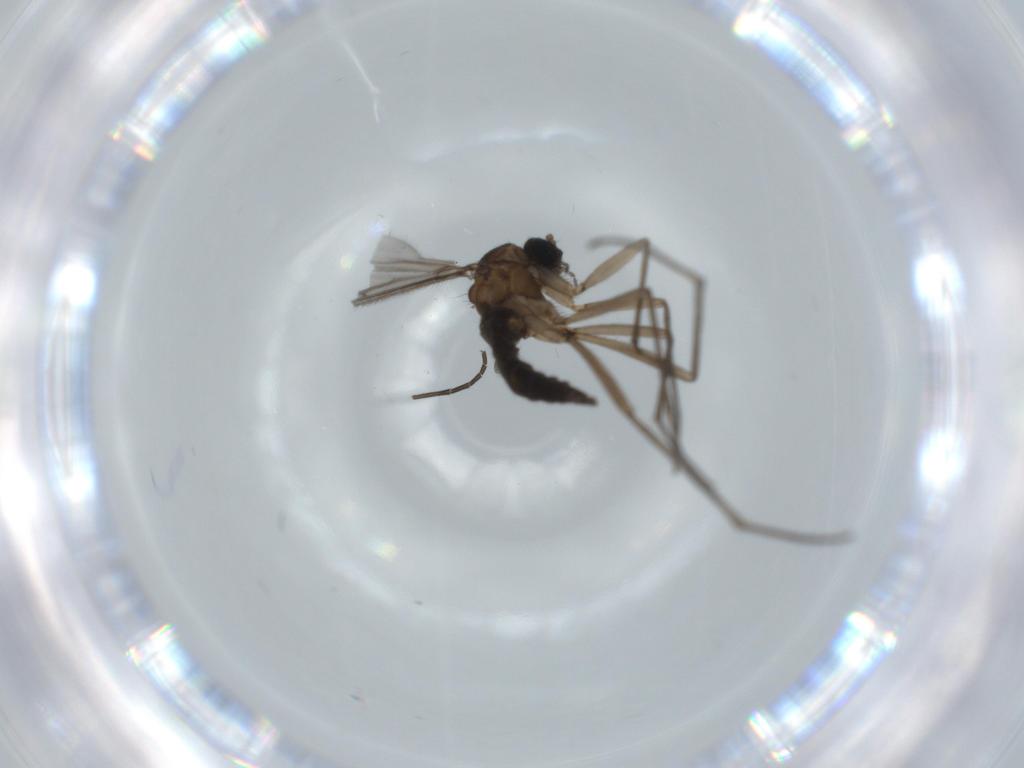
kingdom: Animalia
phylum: Arthropoda
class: Insecta
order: Diptera
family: Sciaridae
